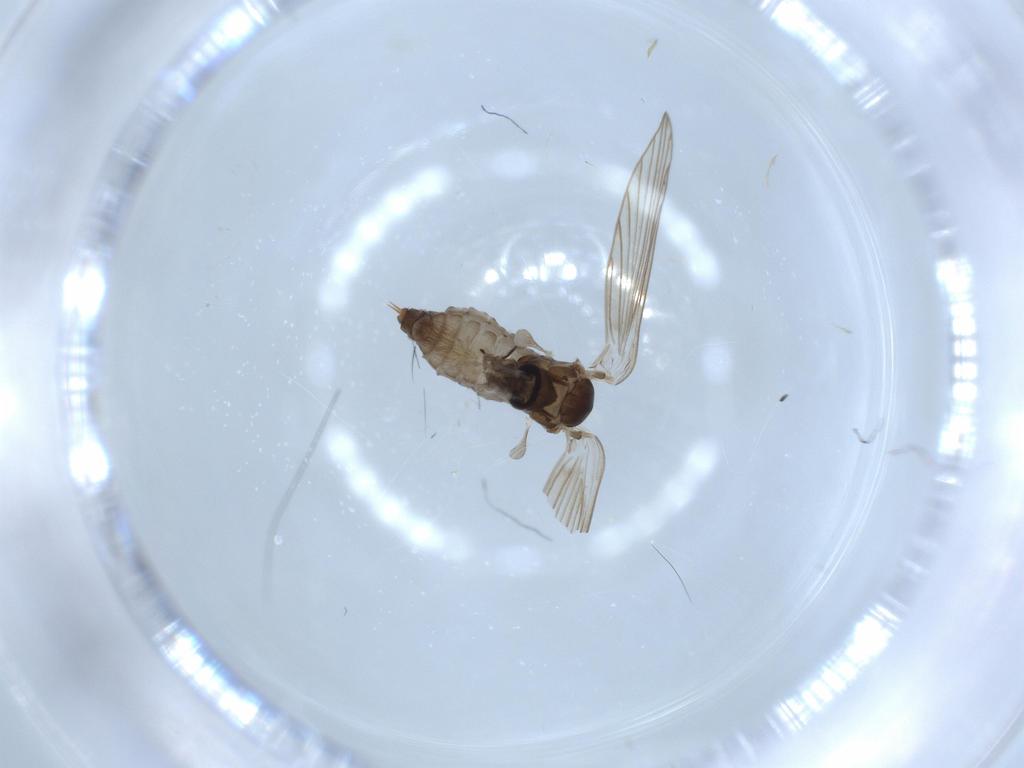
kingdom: Animalia
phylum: Arthropoda
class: Insecta
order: Diptera
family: Psychodidae
